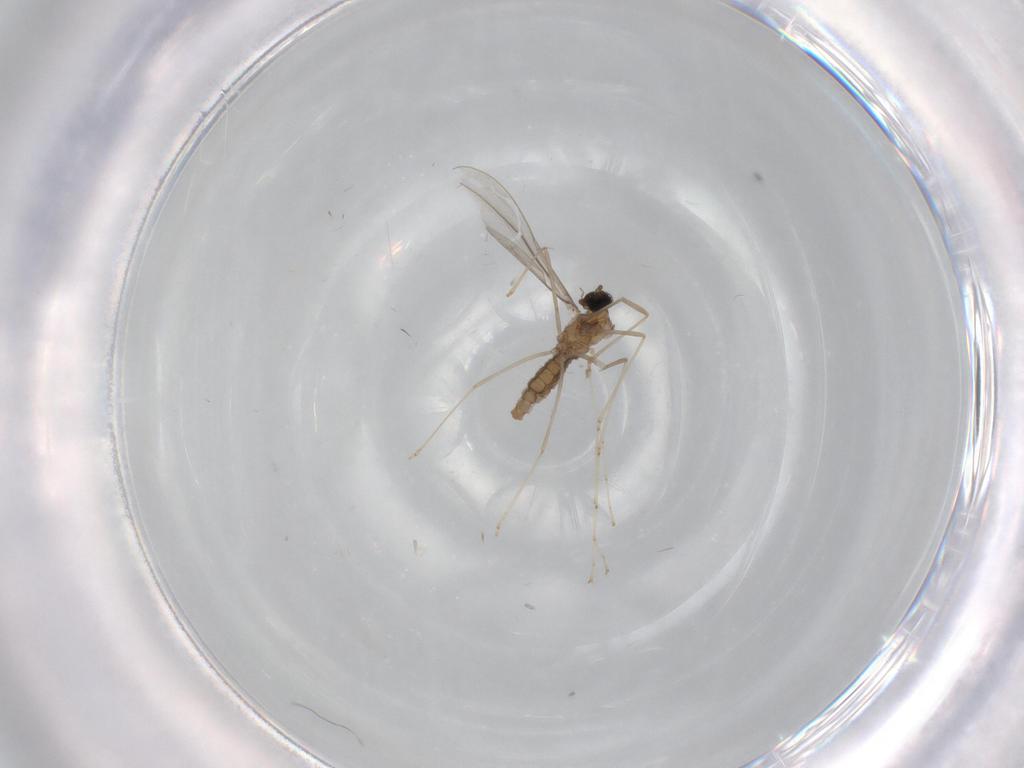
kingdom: Animalia
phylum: Arthropoda
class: Insecta
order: Diptera
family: Cecidomyiidae
